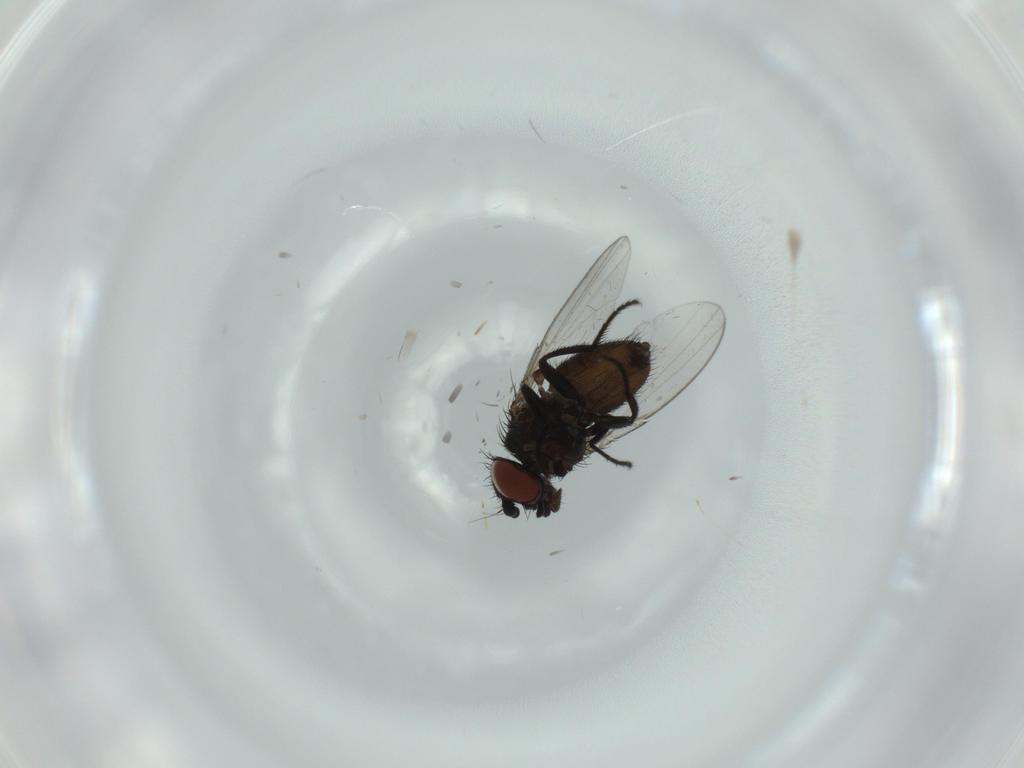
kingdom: Animalia
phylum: Arthropoda
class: Insecta
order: Diptera
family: Milichiidae
